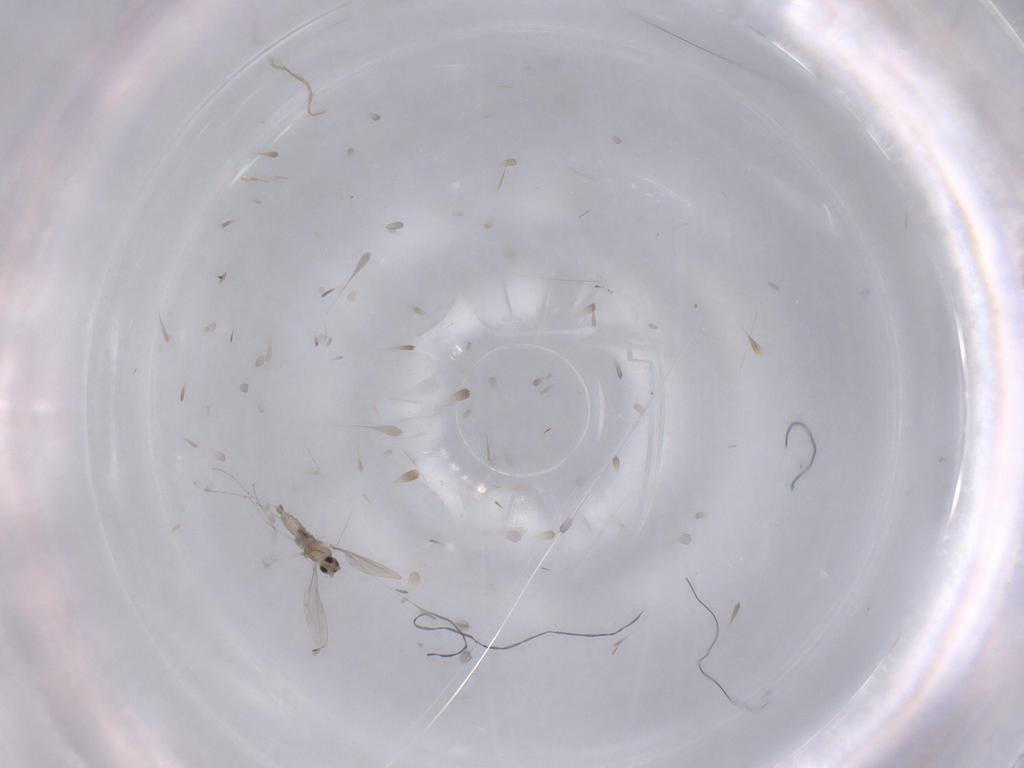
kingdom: Animalia
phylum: Arthropoda
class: Insecta
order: Diptera
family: Cecidomyiidae
